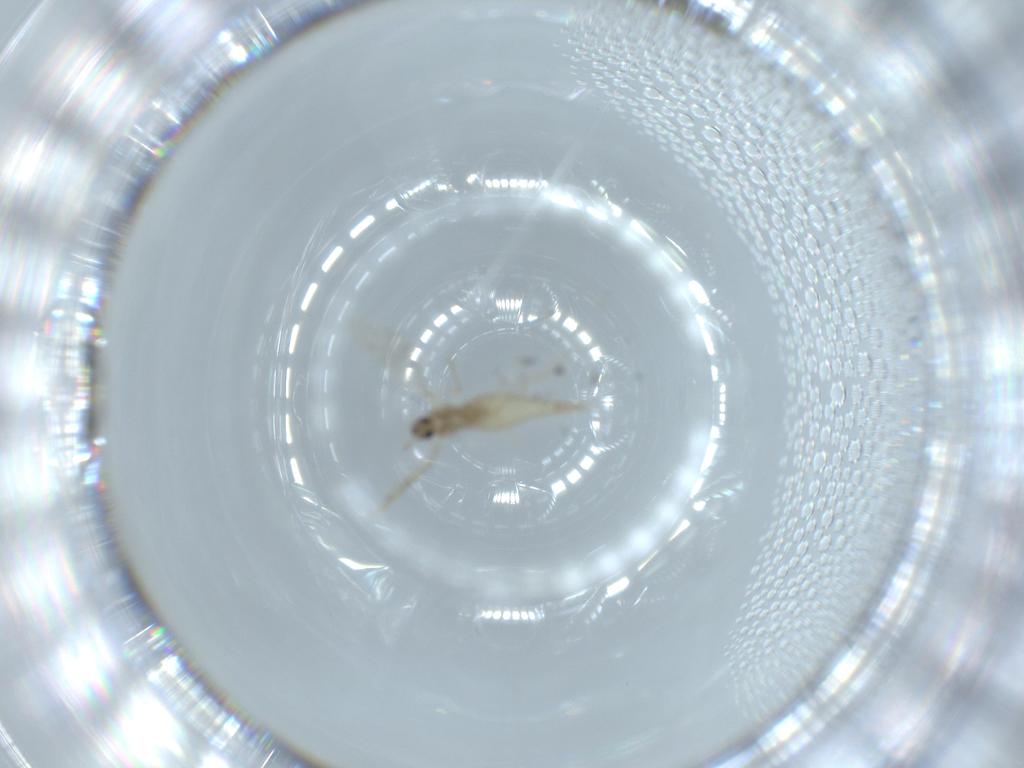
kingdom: Animalia
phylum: Arthropoda
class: Insecta
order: Diptera
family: Cecidomyiidae
